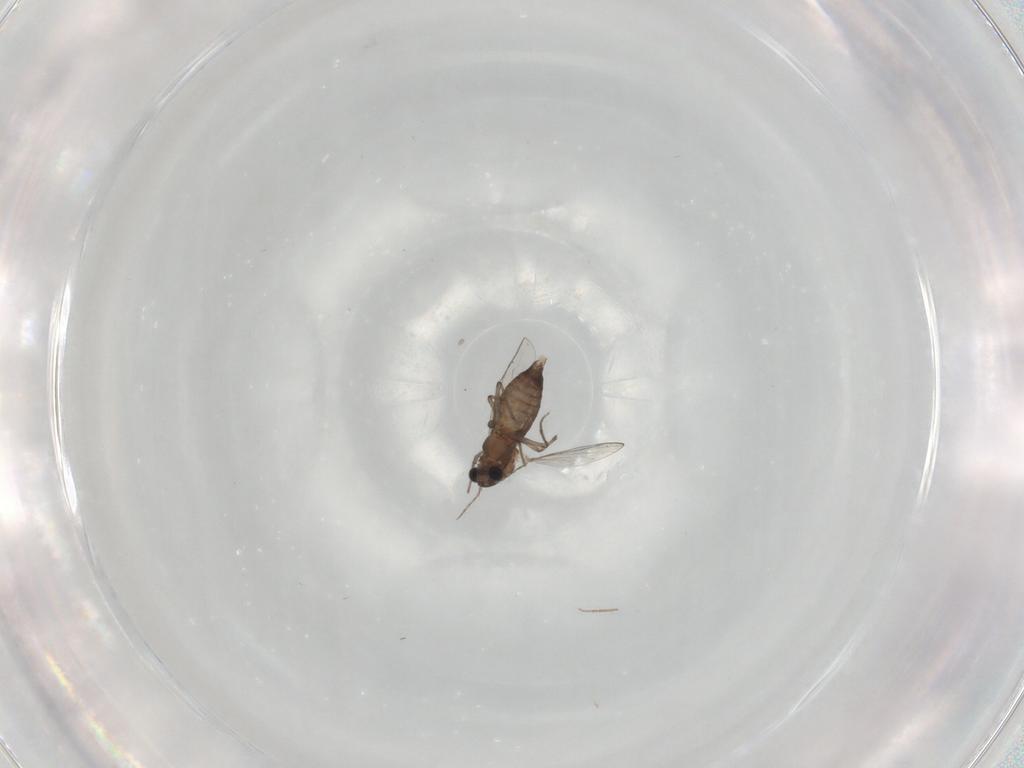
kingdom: Animalia
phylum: Arthropoda
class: Insecta
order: Diptera
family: Chironomidae
